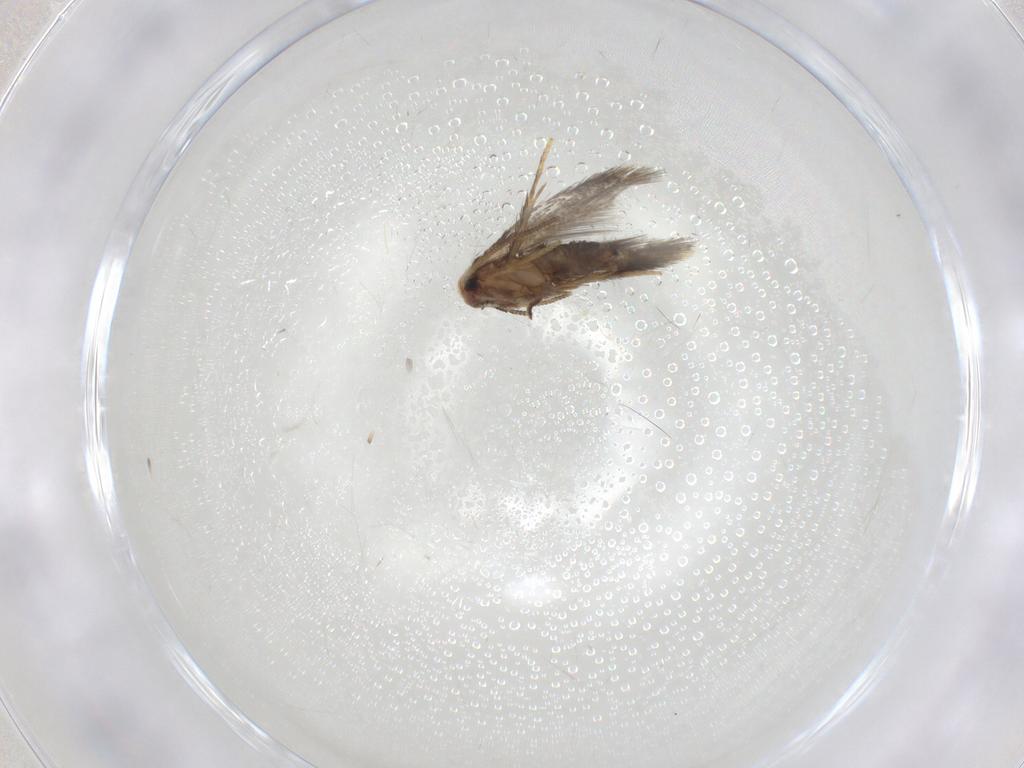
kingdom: Animalia
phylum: Arthropoda
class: Insecta
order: Lepidoptera
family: Nepticulidae
